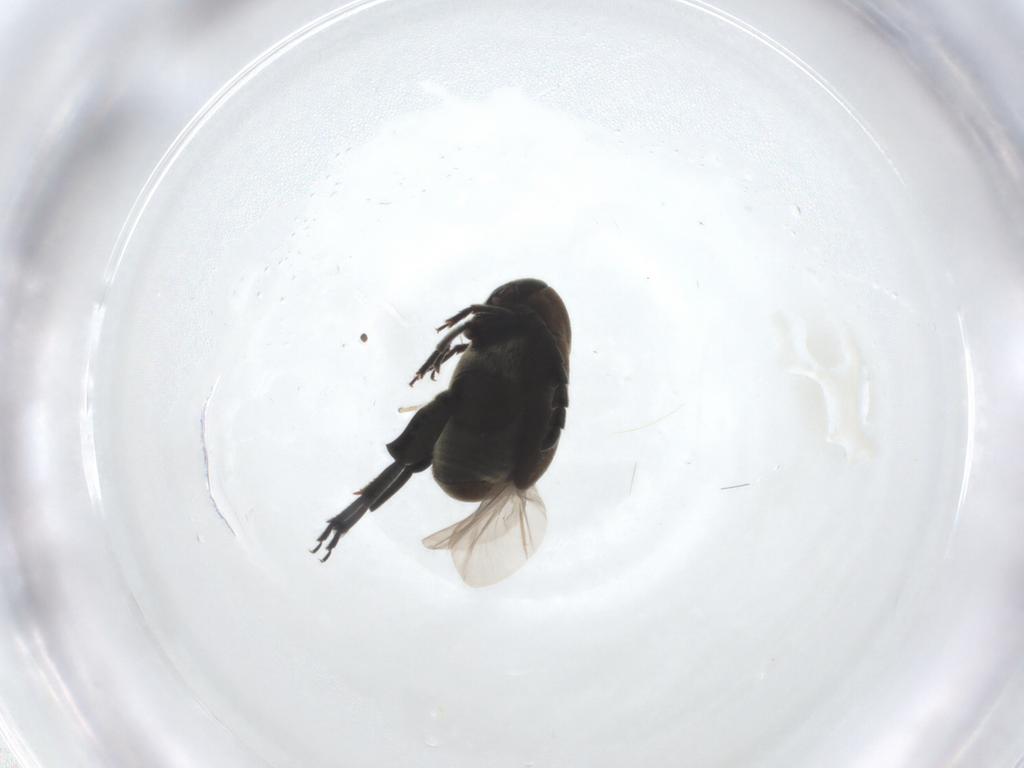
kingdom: Animalia
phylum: Arthropoda
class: Insecta
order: Coleoptera
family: Chrysomelidae
